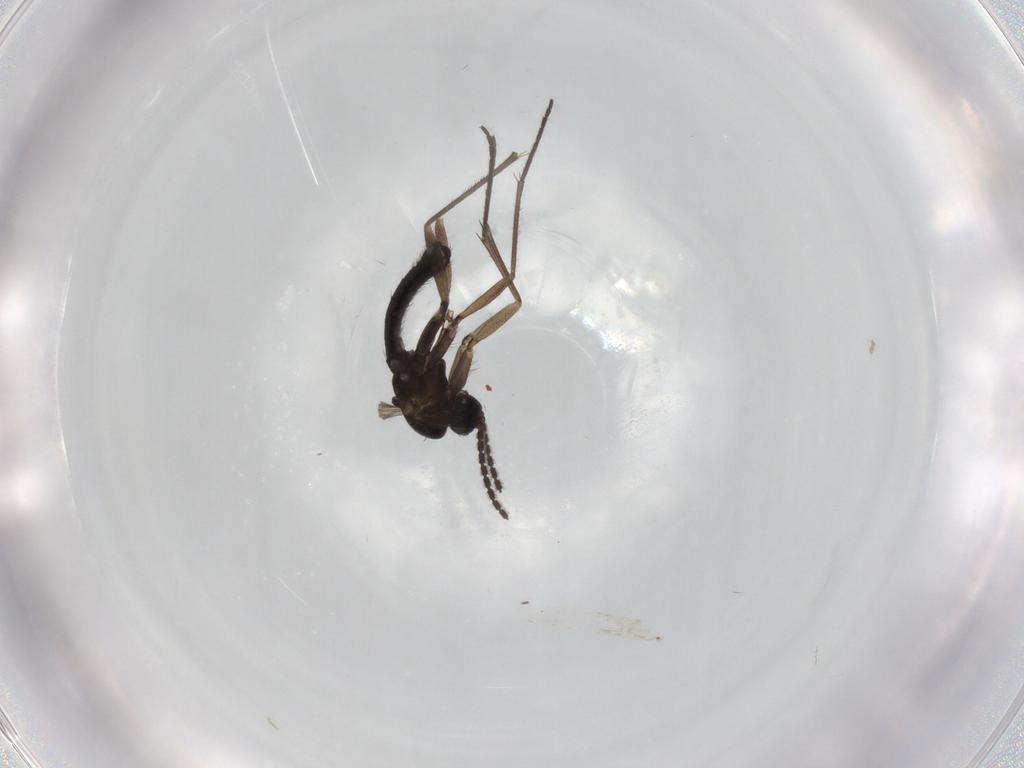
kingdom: Animalia
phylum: Arthropoda
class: Insecta
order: Diptera
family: Sciaridae
